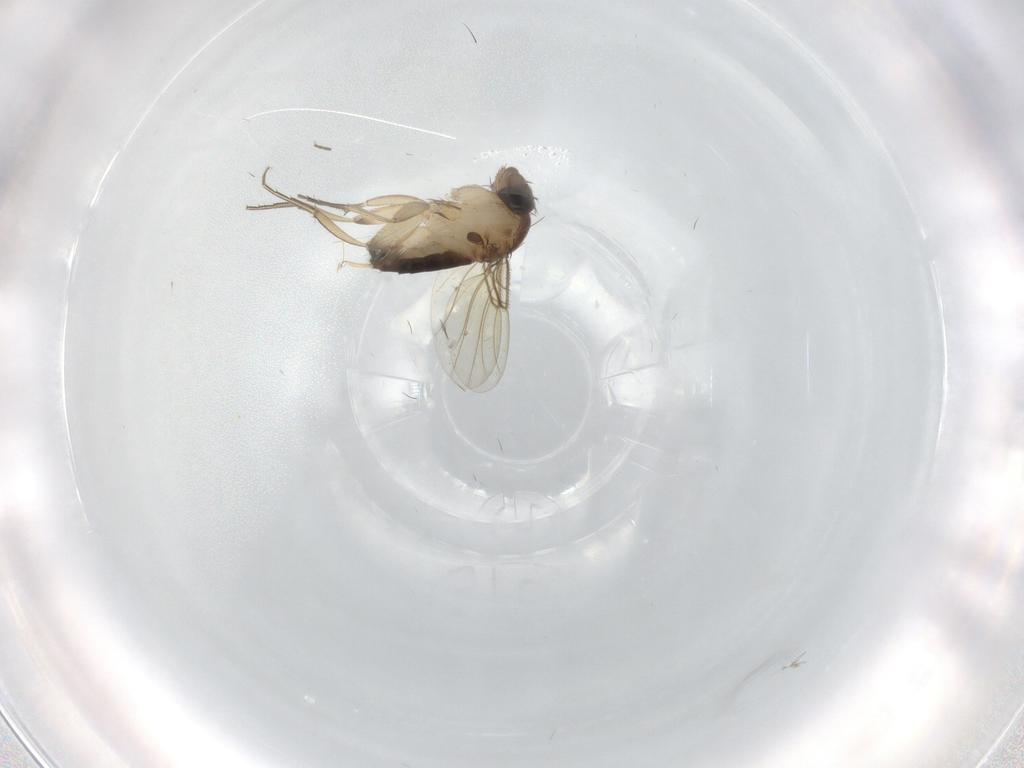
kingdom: Animalia
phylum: Arthropoda
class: Insecta
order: Diptera
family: Phoridae
